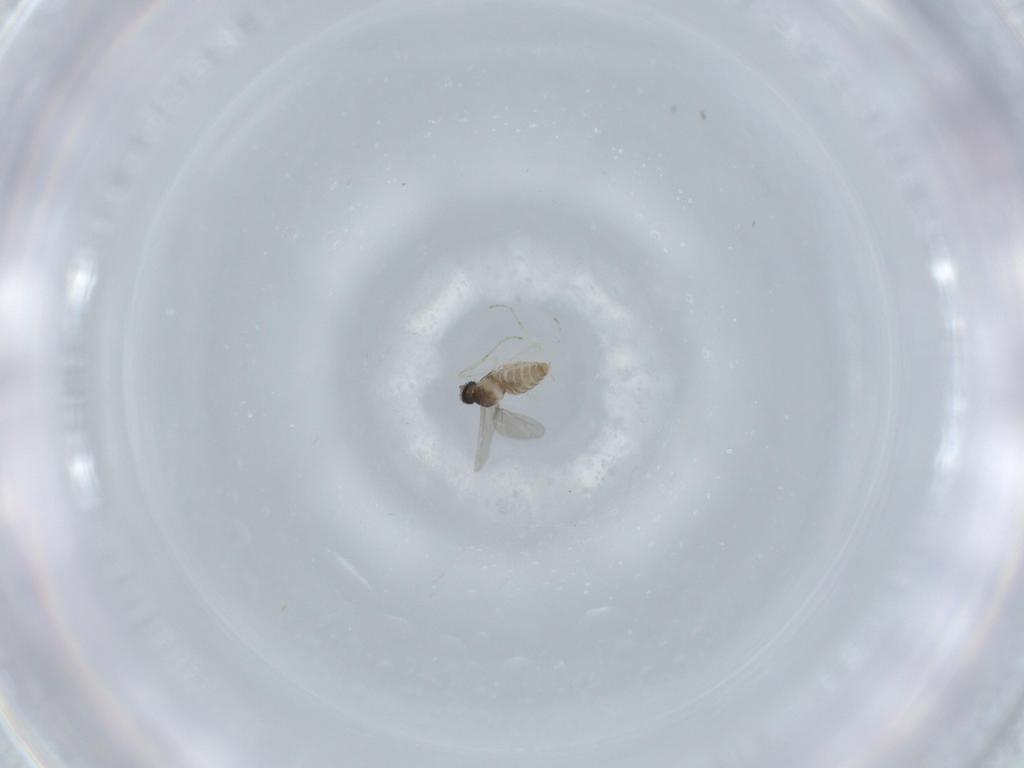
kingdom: Animalia
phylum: Arthropoda
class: Insecta
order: Diptera
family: Cecidomyiidae
